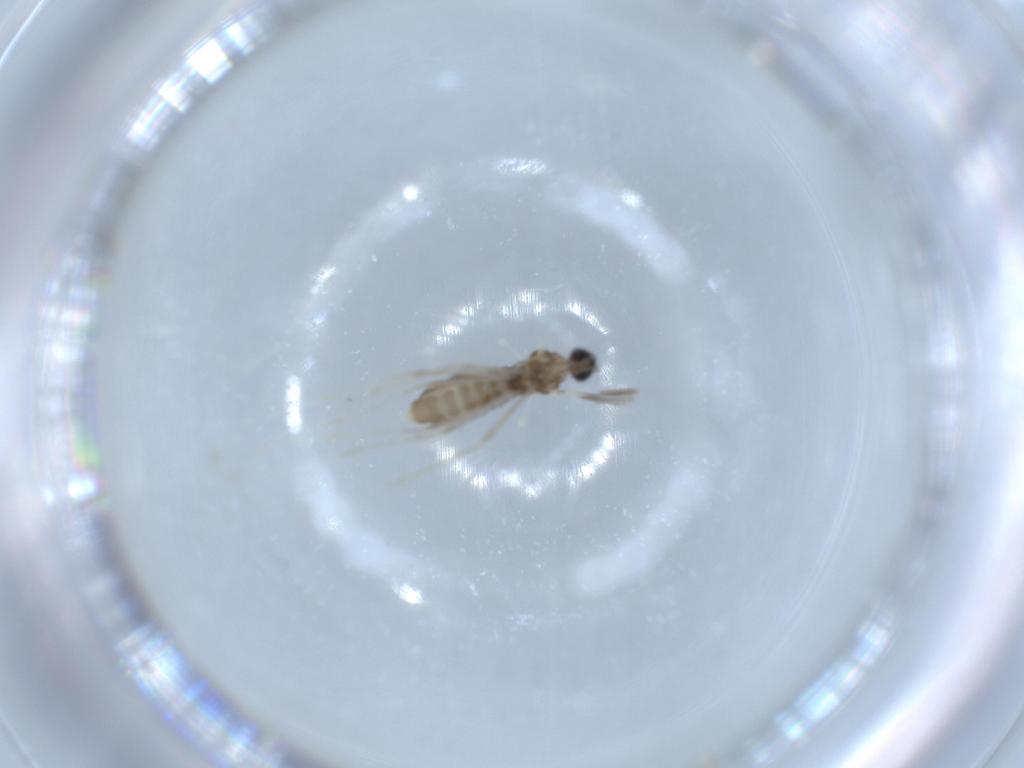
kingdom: Animalia
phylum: Arthropoda
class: Insecta
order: Diptera
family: Cecidomyiidae
